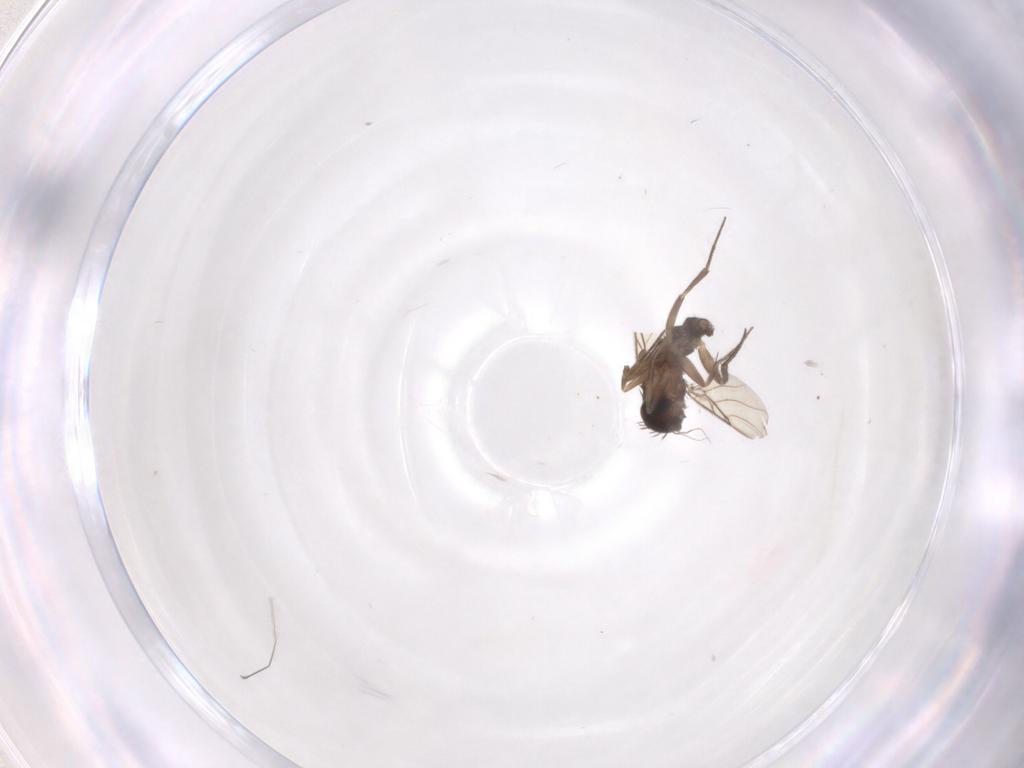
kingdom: Animalia
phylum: Arthropoda
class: Insecta
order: Diptera
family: Phoridae
